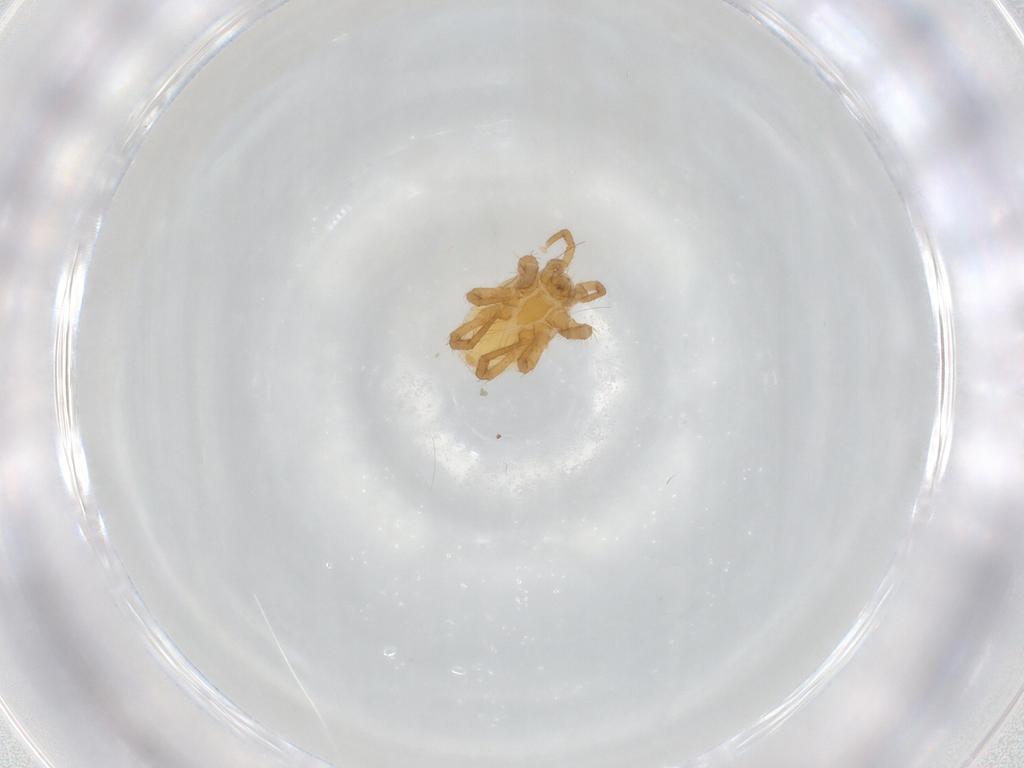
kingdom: Animalia
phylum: Arthropoda
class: Arachnida
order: Mesostigmata
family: Parasitidae
